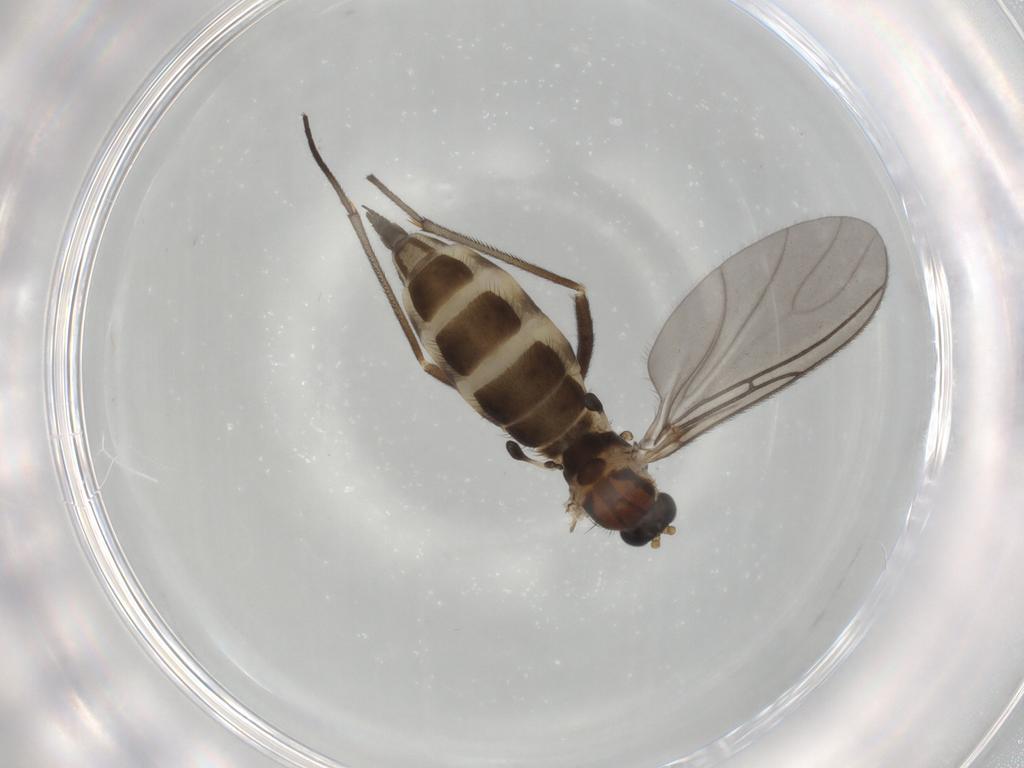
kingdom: Animalia
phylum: Arthropoda
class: Insecta
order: Diptera
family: Sciaridae
